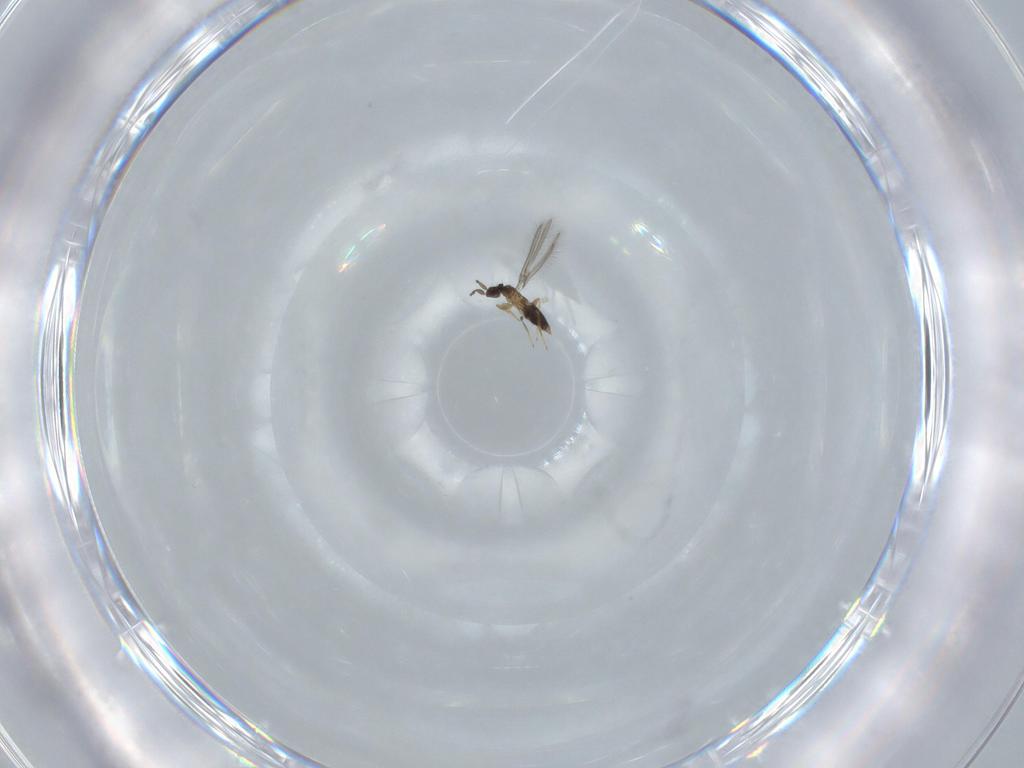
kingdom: Animalia
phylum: Arthropoda
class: Insecta
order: Hymenoptera
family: Mymaridae
